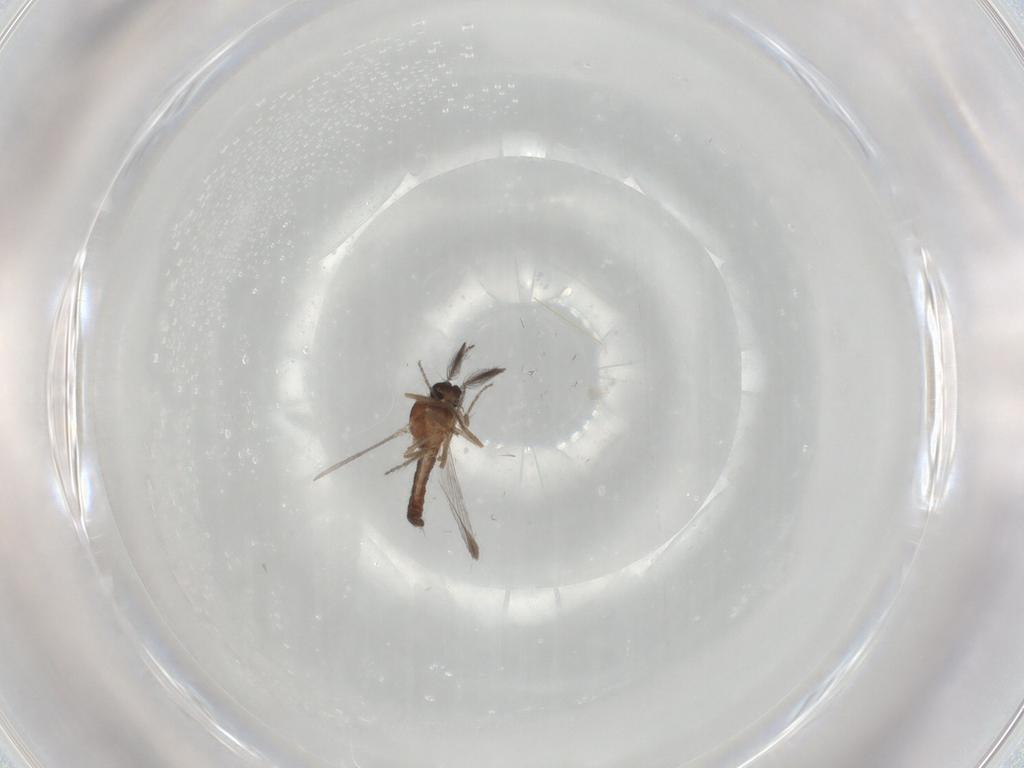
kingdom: Animalia
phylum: Arthropoda
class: Insecta
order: Diptera
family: Ceratopogonidae
